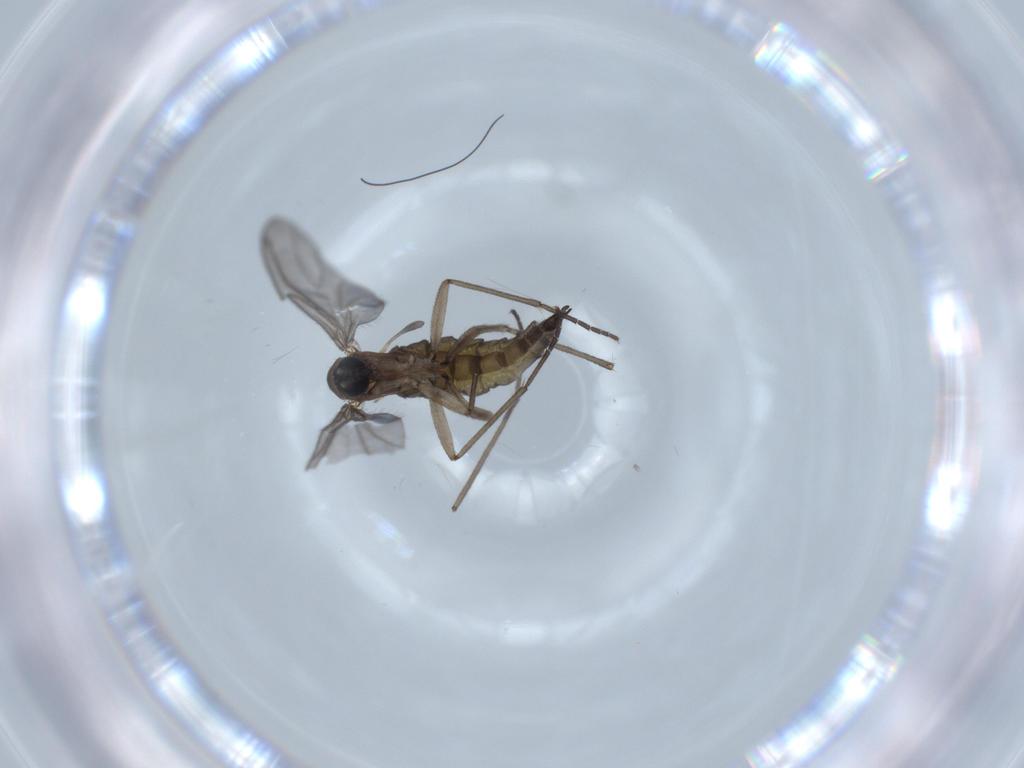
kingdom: Animalia
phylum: Arthropoda
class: Insecta
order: Diptera
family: Sciaridae
